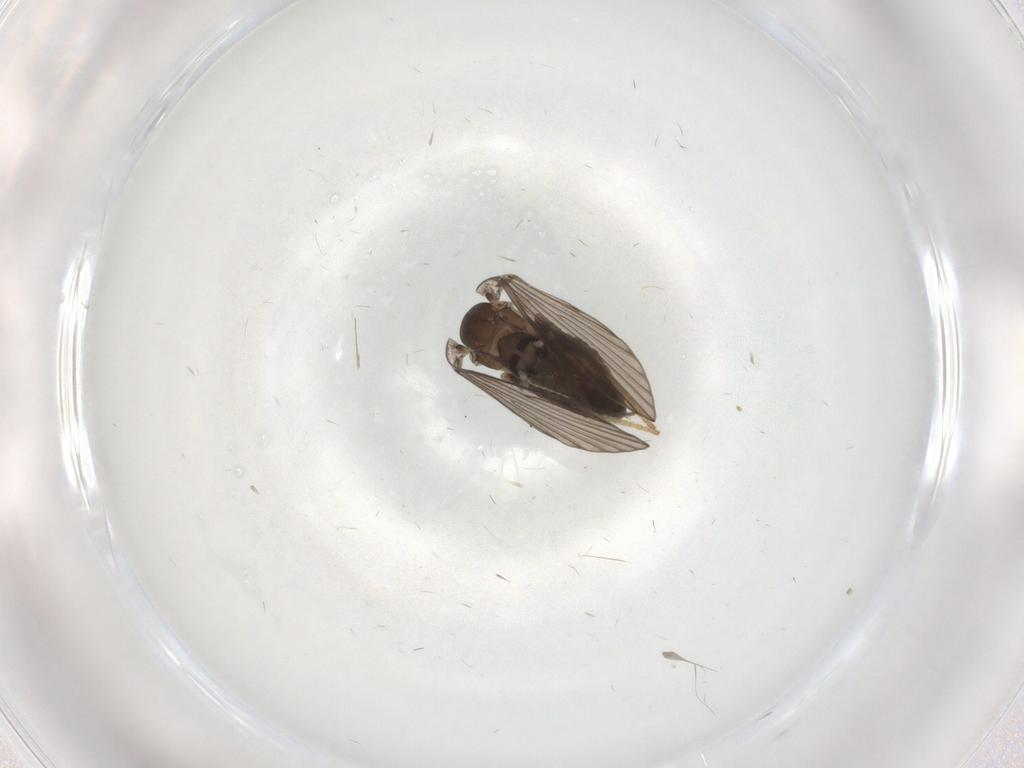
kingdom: Animalia
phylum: Arthropoda
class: Insecta
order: Diptera
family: Psychodidae
